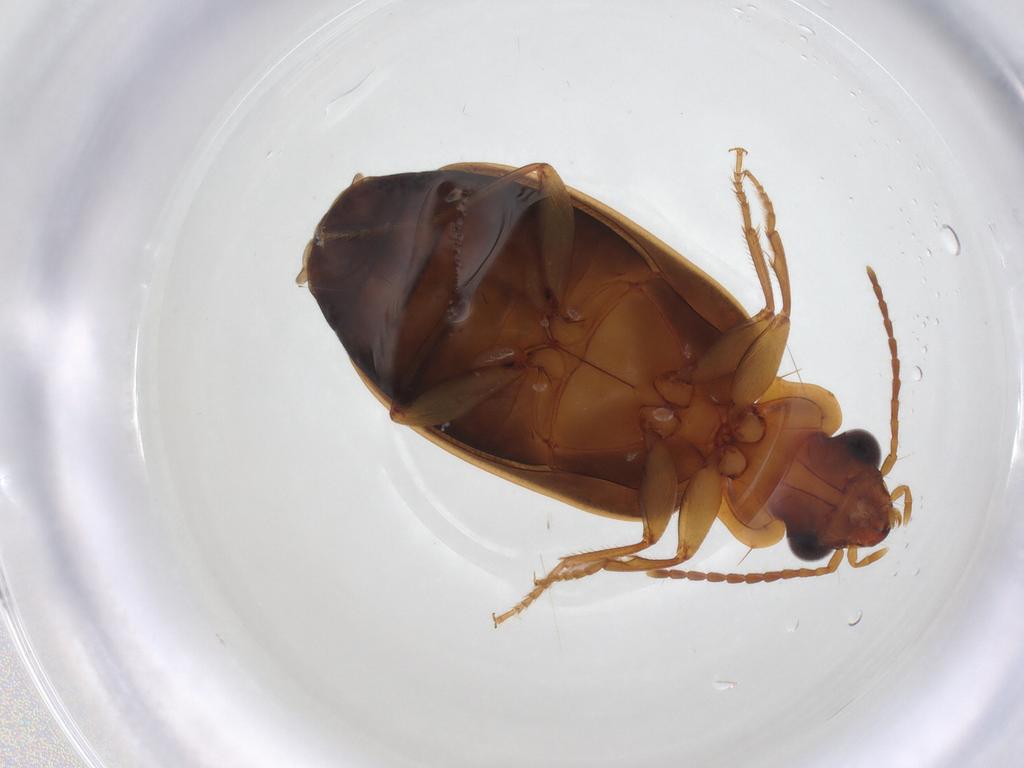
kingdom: Animalia
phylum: Arthropoda
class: Insecta
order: Coleoptera
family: Carabidae
